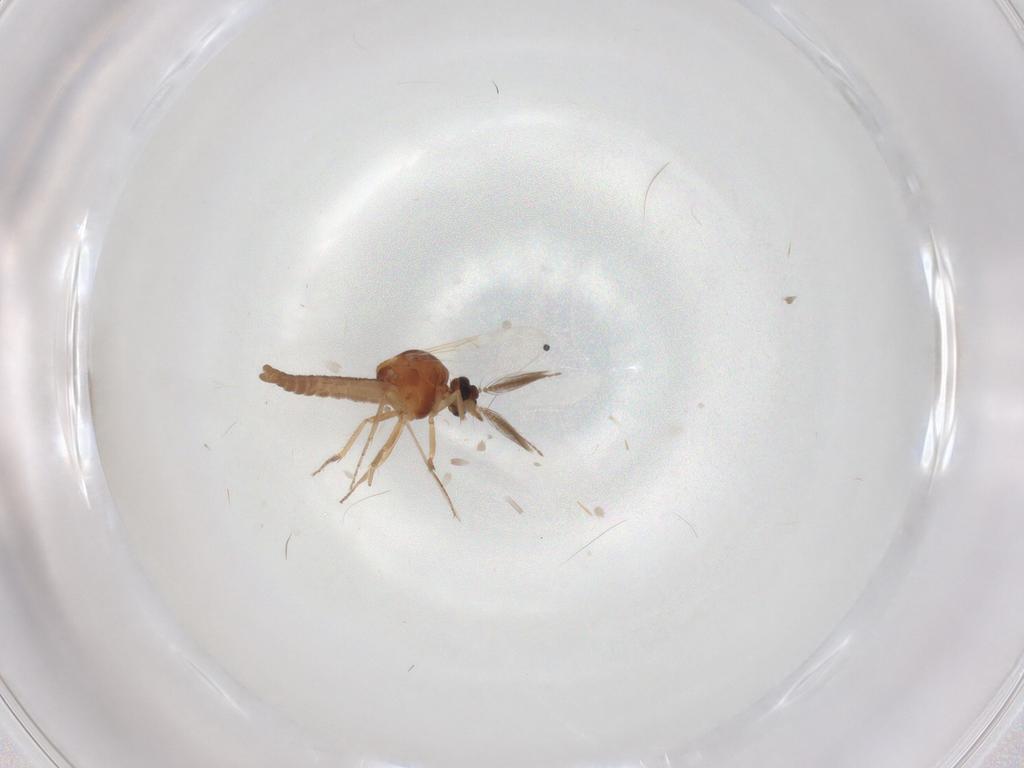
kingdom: Animalia
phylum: Arthropoda
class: Insecta
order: Diptera
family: Ceratopogonidae
